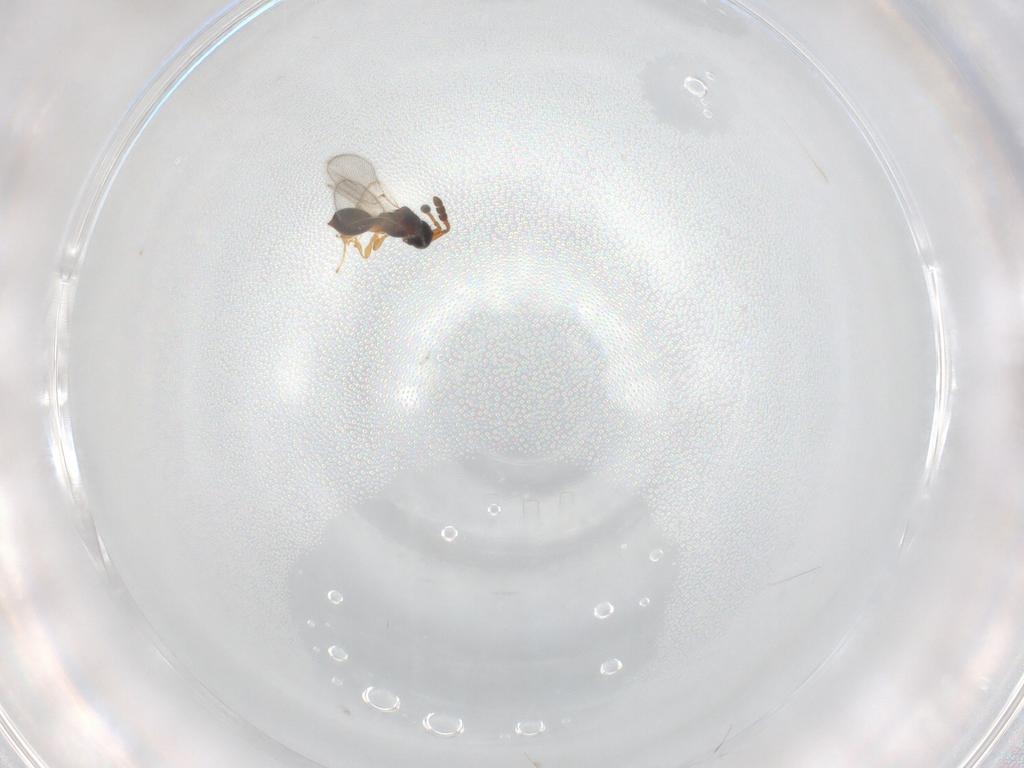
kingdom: Animalia
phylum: Arthropoda
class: Insecta
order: Hymenoptera
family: Diapriidae
